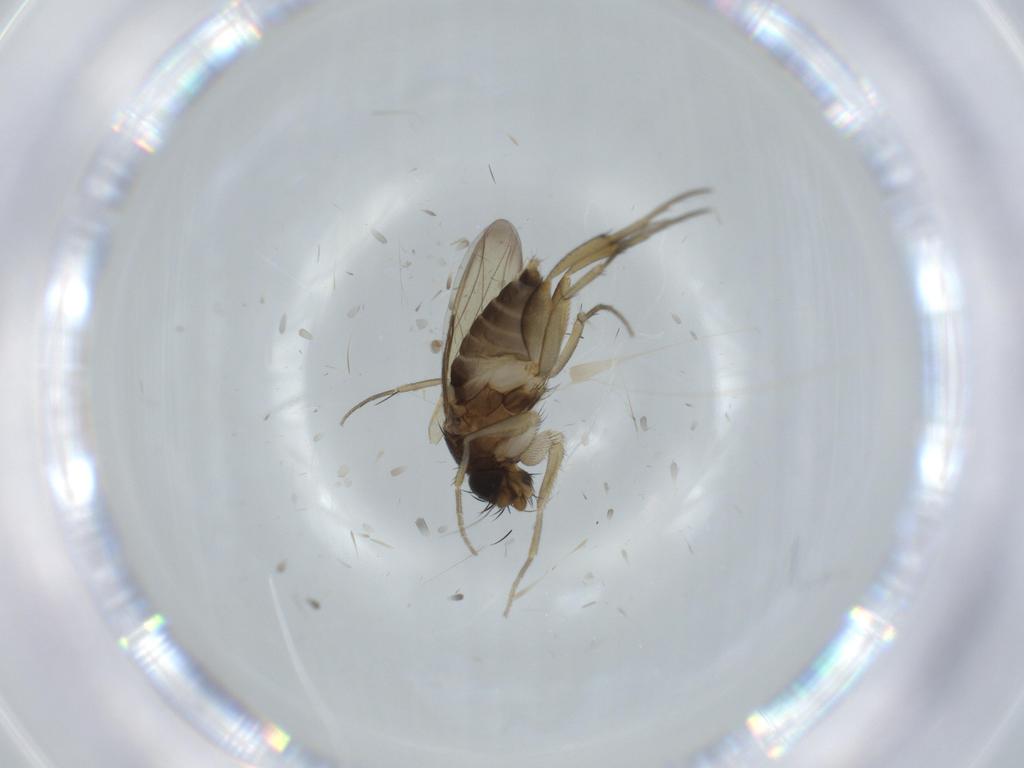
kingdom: Animalia
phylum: Arthropoda
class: Insecta
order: Diptera
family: Phoridae
